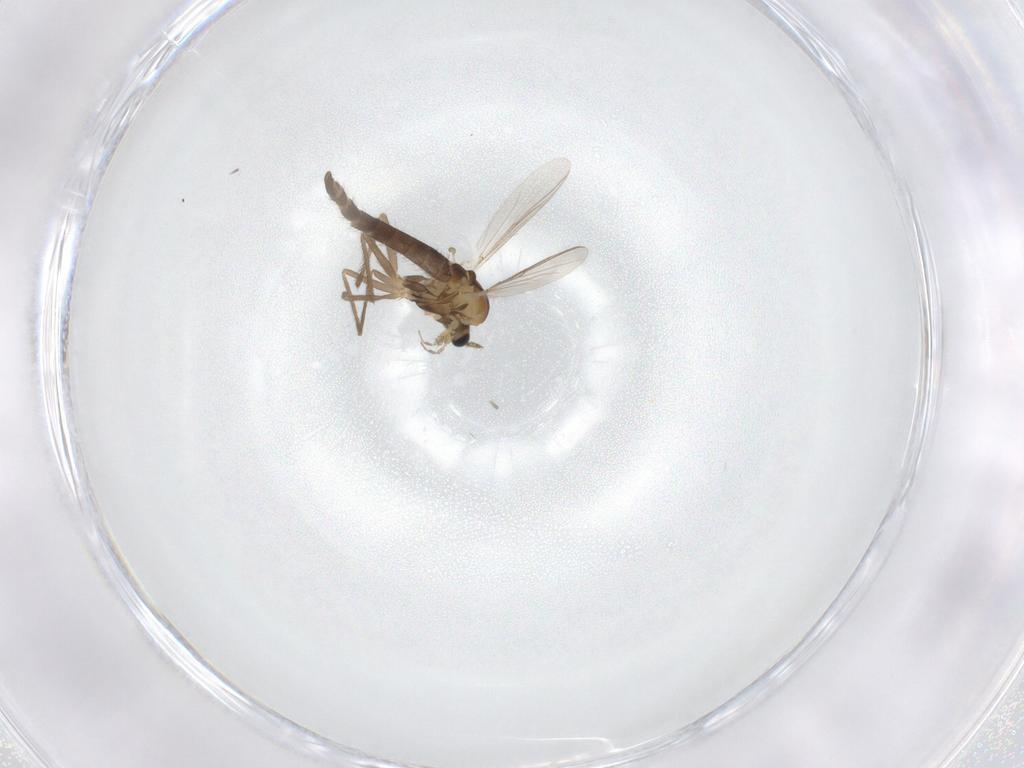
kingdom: Animalia
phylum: Arthropoda
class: Insecta
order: Diptera
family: Chironomidae
